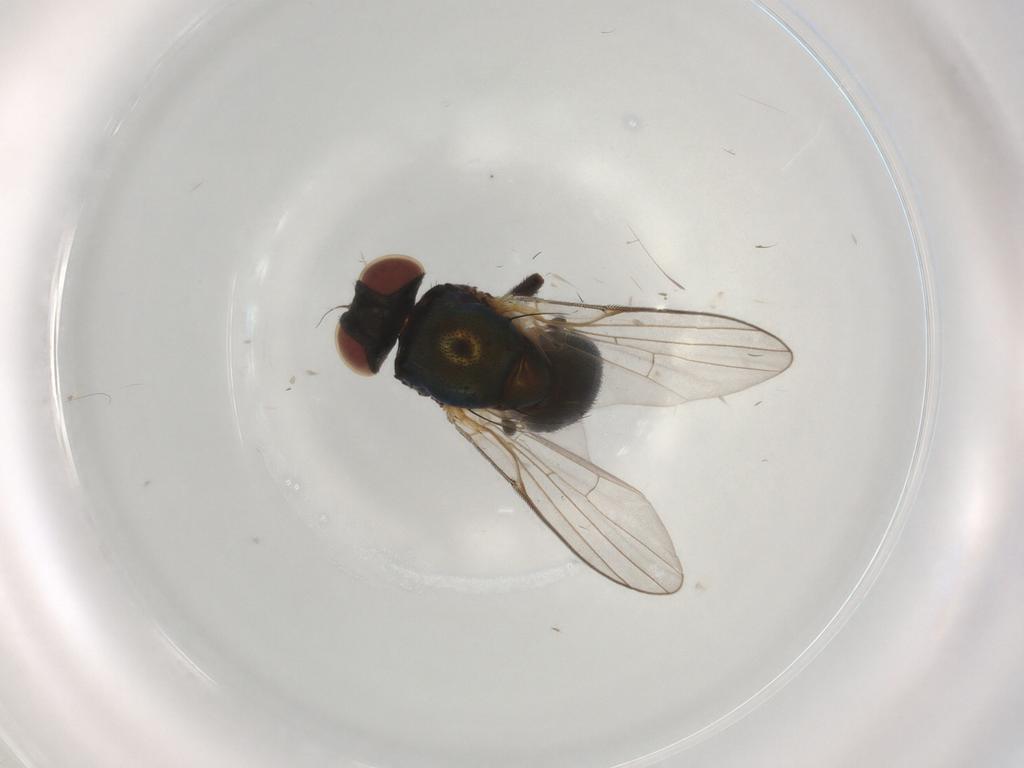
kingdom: Animalia
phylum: Arthropoda
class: Insecta
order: Diptera
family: Agromyzidae
